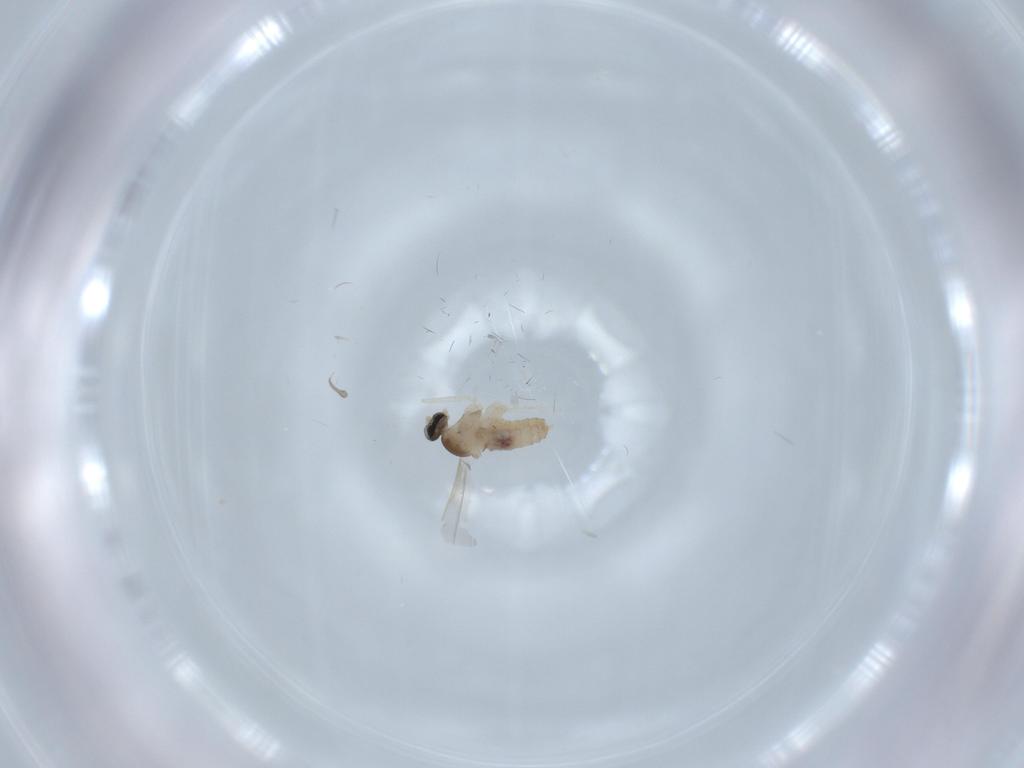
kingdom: Animalia
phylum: Arthropoda
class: Insecta
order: Diptera
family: Cecidomyiidae
